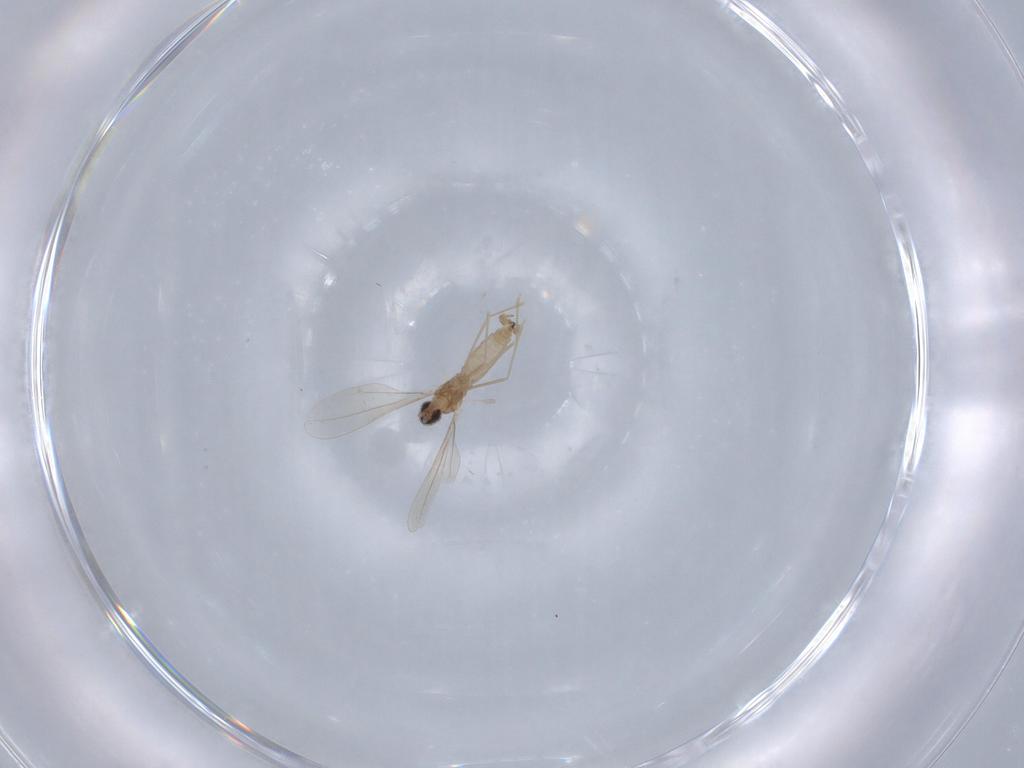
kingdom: Animalia
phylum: Arthropoda
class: Insecta
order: Diptera
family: Cecidomyiidae
